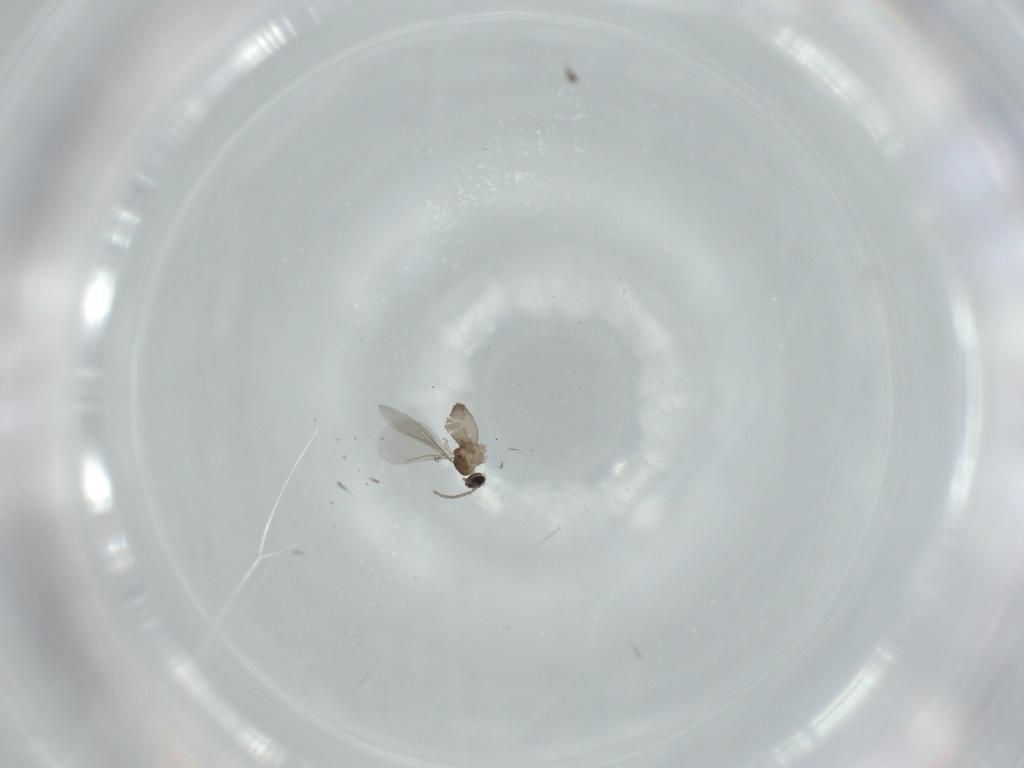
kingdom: Animalia
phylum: Arthropoda
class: Insecta
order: Diptera
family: Cecidomyiidae
